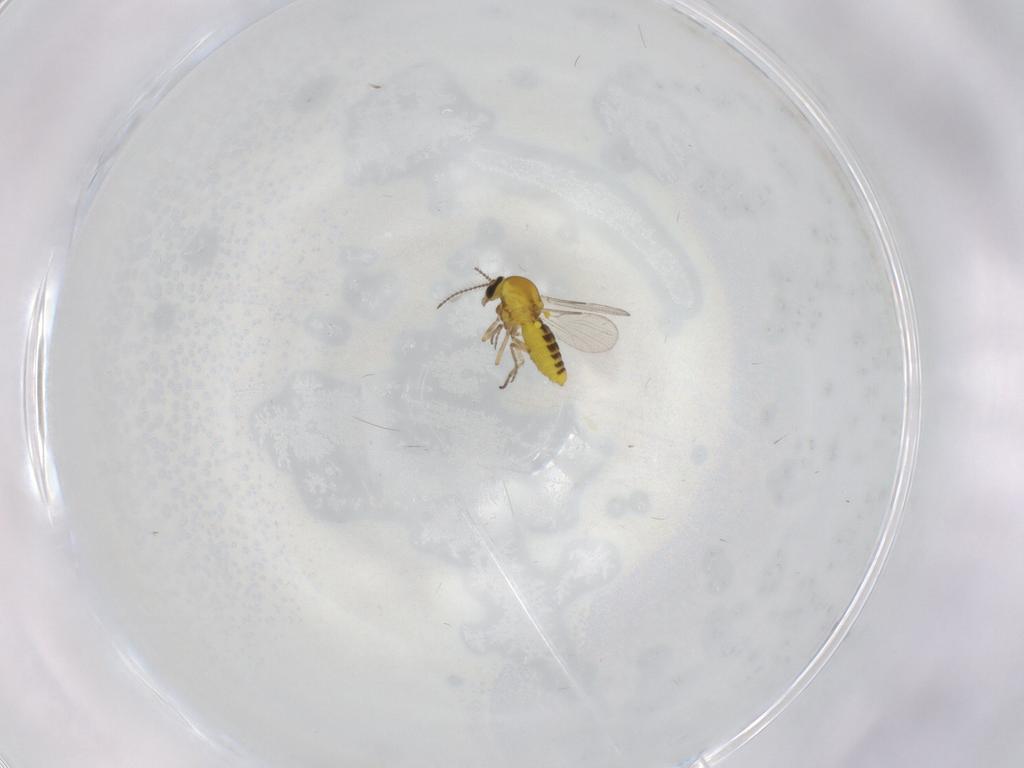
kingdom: Animalia
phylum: Arthropoda
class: Insecta
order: Diptera
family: Ceratopogonidae
